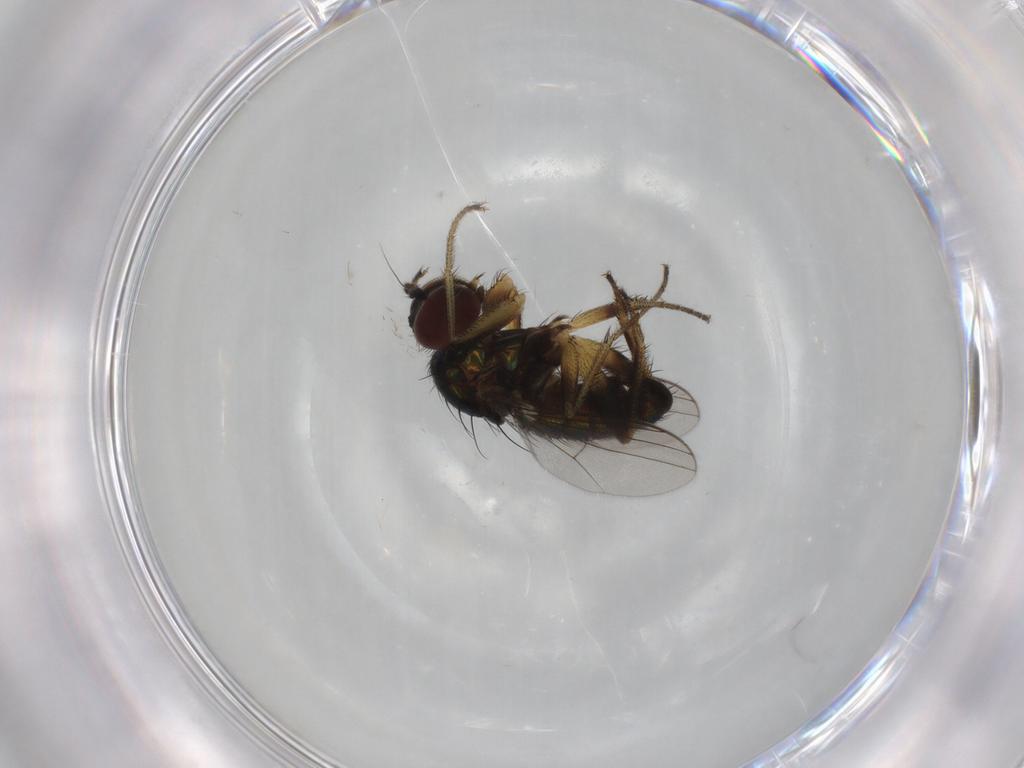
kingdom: Animalia
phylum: Arthropoda
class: Insecta
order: Diptera
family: Dolichopodidae
